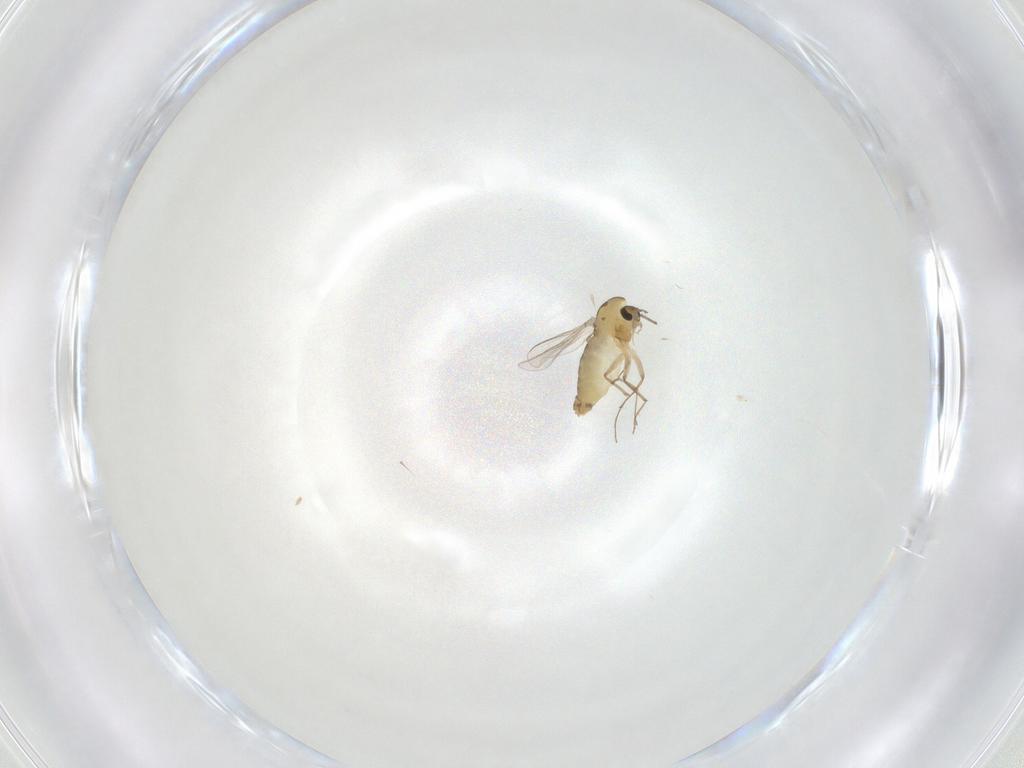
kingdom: Animalia
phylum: Arthropoda
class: Insecta
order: Diptera
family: Chironomidae
